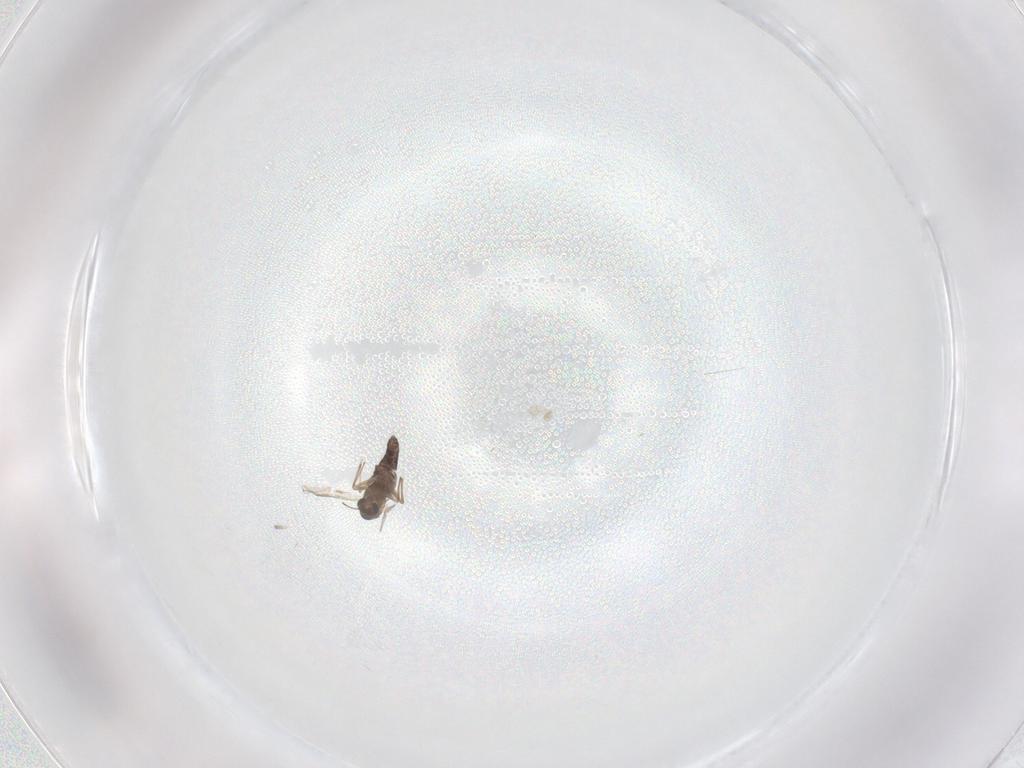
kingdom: Animalia
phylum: Arthropoda
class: Insecta
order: Diptera
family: Chironomidae
